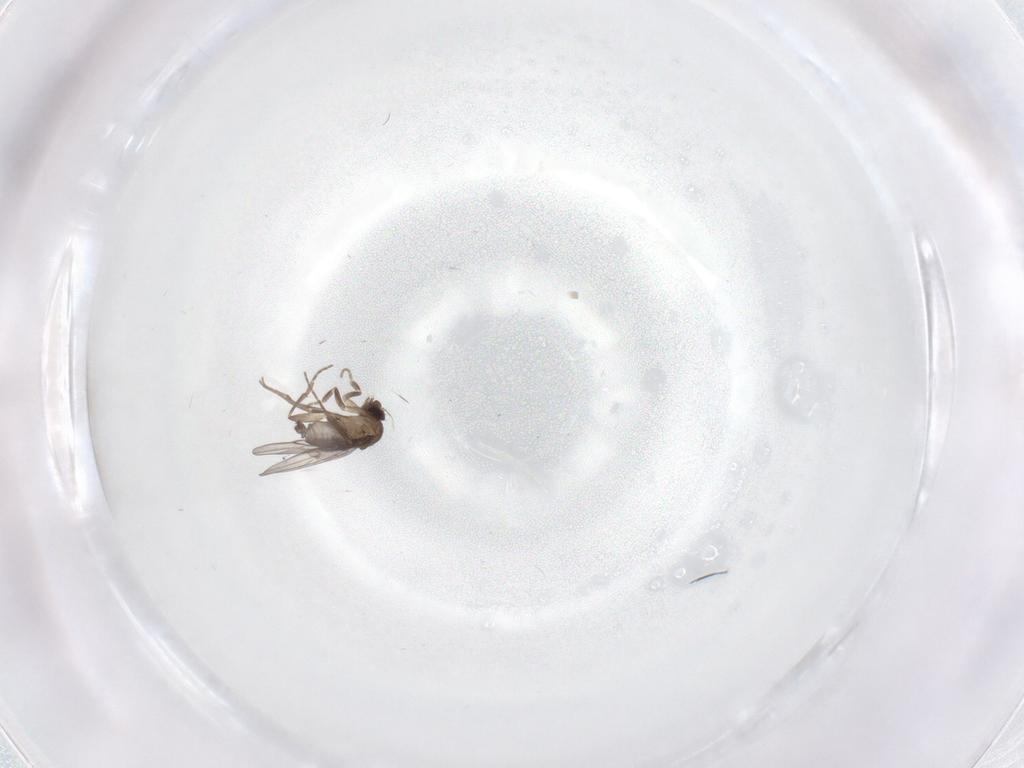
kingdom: Animalia
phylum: Arthropoda
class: Insecta
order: Diptera
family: Phoridae
